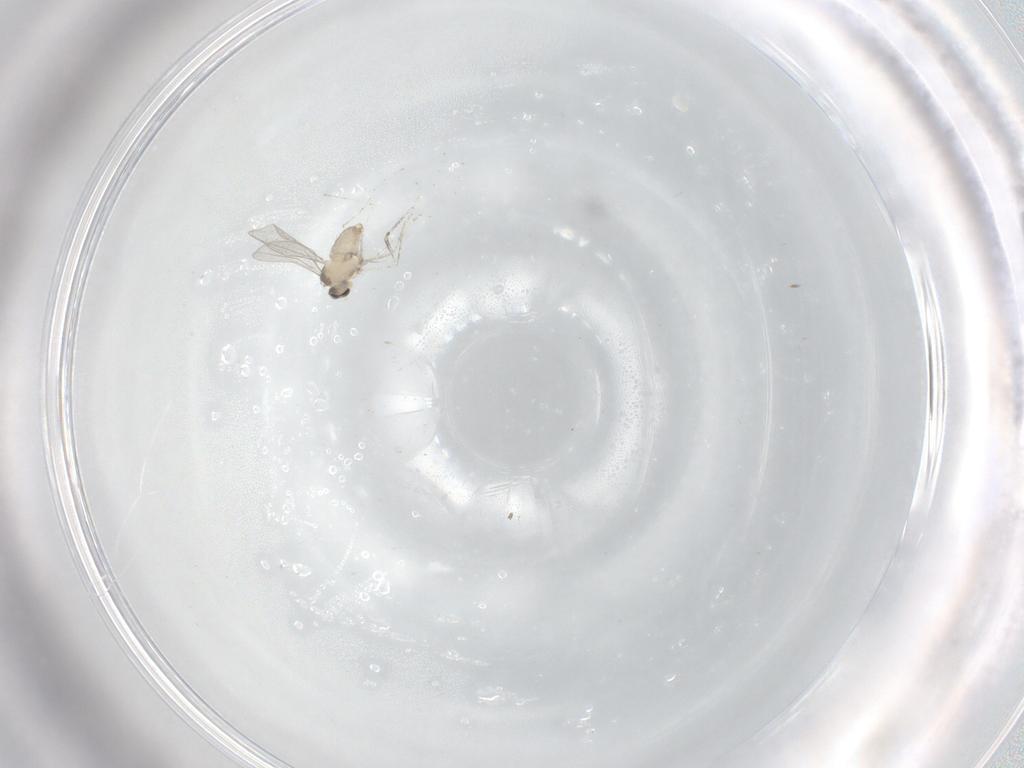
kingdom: Animalia
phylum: Arthropoda
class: Insecta
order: Diptera
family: Cecidomyiidae
